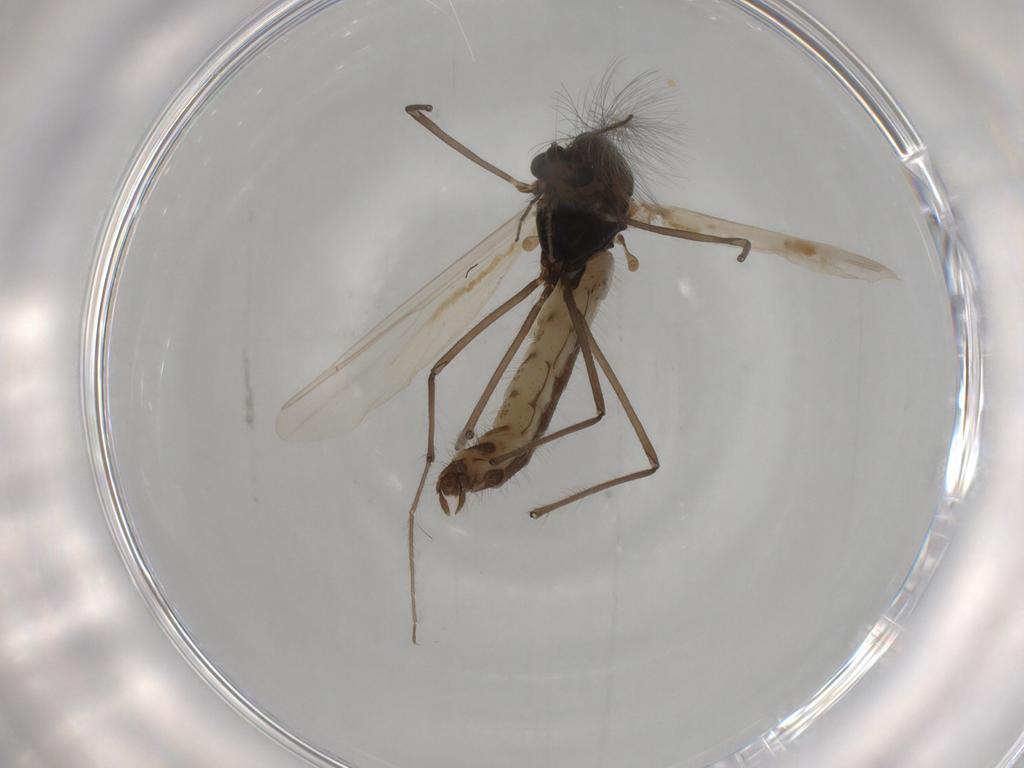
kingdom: Animalia
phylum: Arthropoda
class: Insecta
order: Diptera
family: Chironomidae
